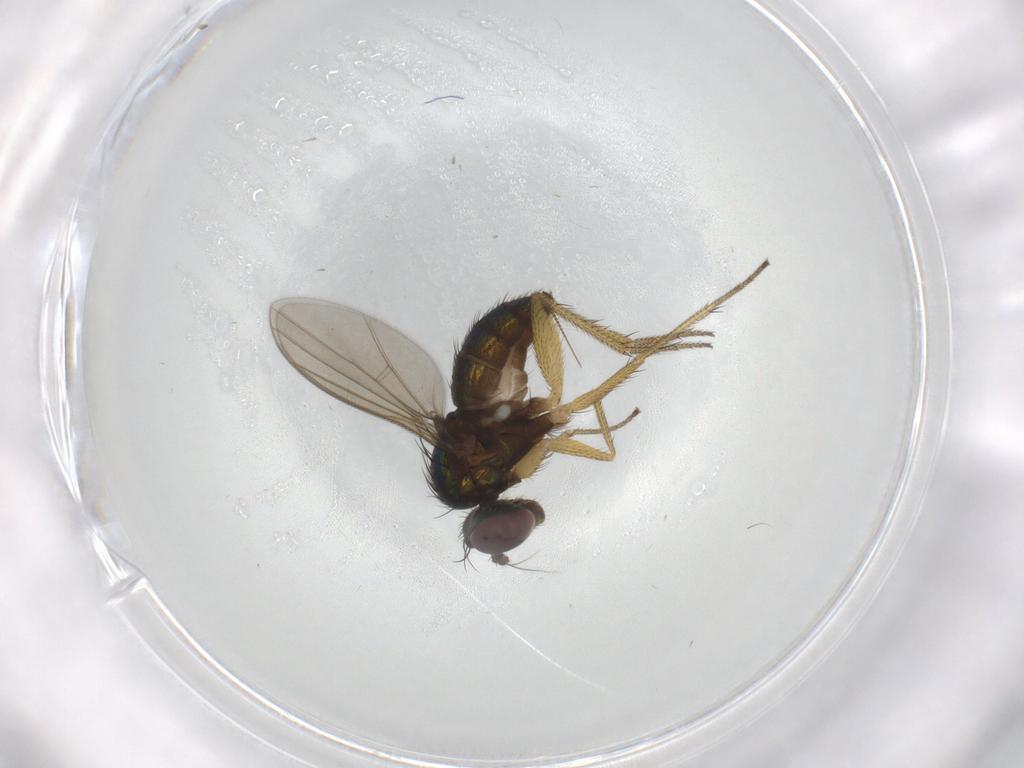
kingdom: Animalia
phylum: Arthropoda
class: Insecta
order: Diptera
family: Dolichopodidae
